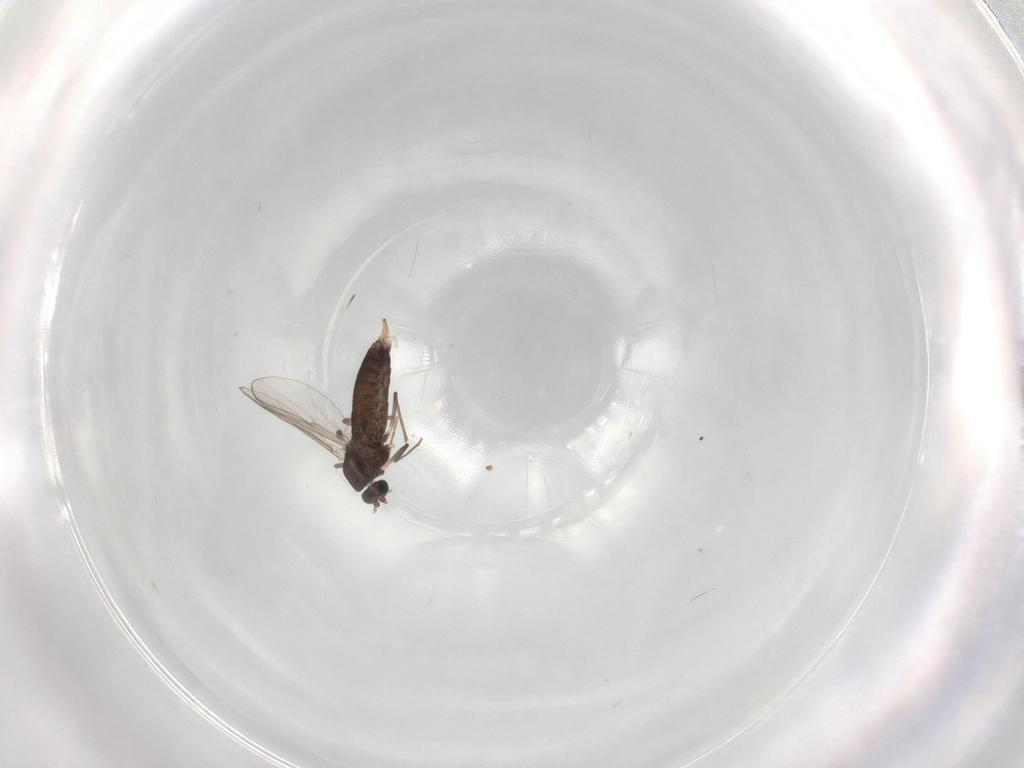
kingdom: Animalia
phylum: Arthropoda
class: Insecta
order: Diptera
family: Chironomidae
